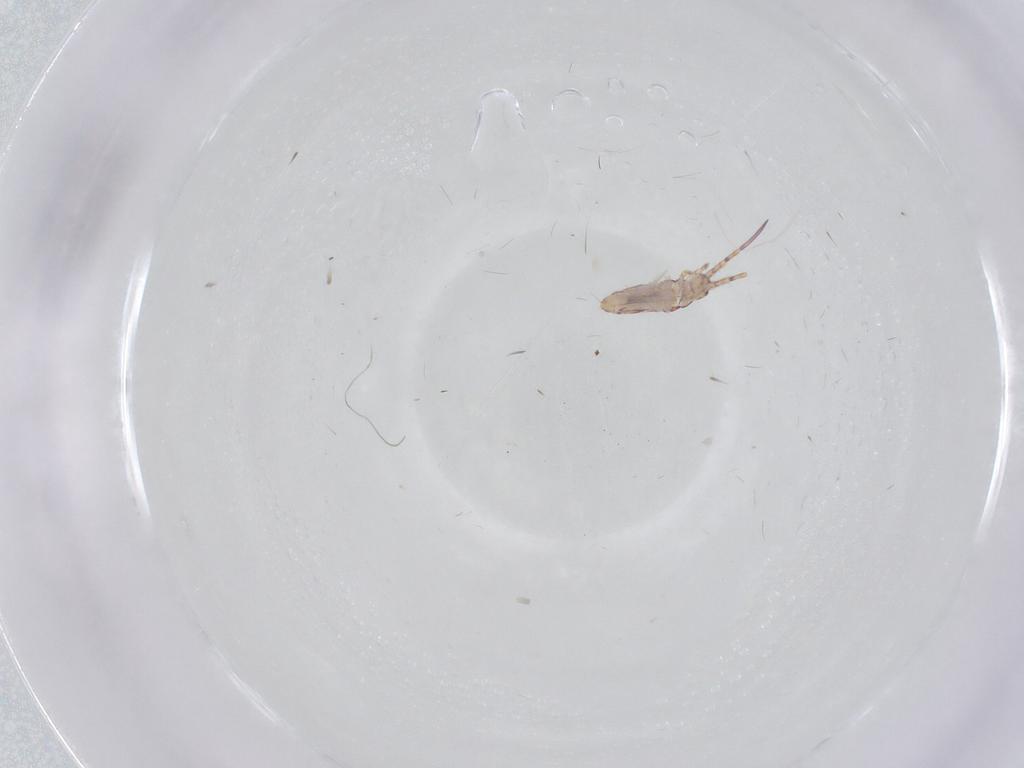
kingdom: Animalia
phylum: Arthropoda
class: Collembola
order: Entomobryomorpha
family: Entomobryidae
